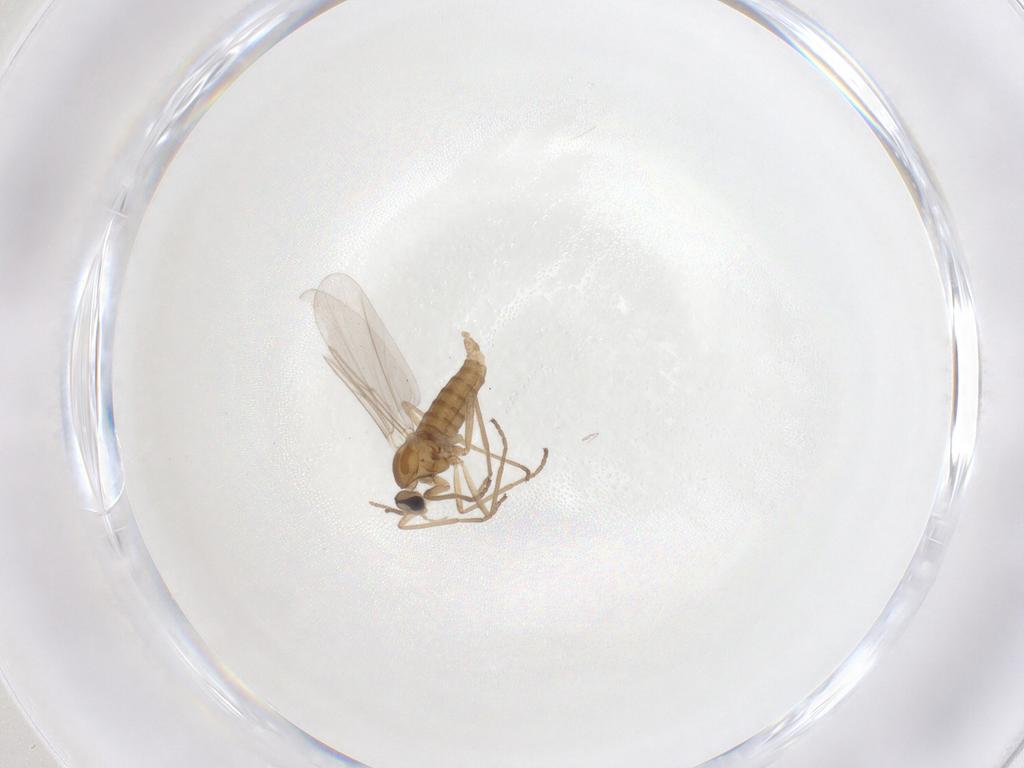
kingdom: Animalia
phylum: Arthropoda
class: Insecta
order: Diptera
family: Cecidomyiidae
